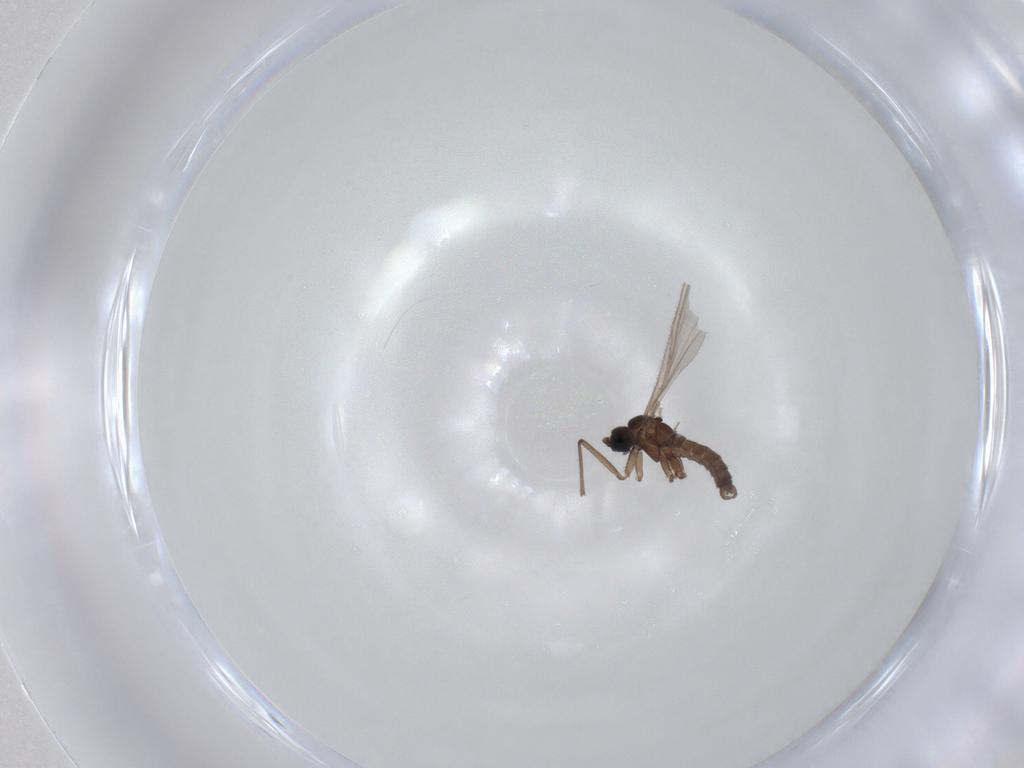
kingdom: Animalia
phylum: Arthropoda
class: Insecta
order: Diptera
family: Sciaridae
